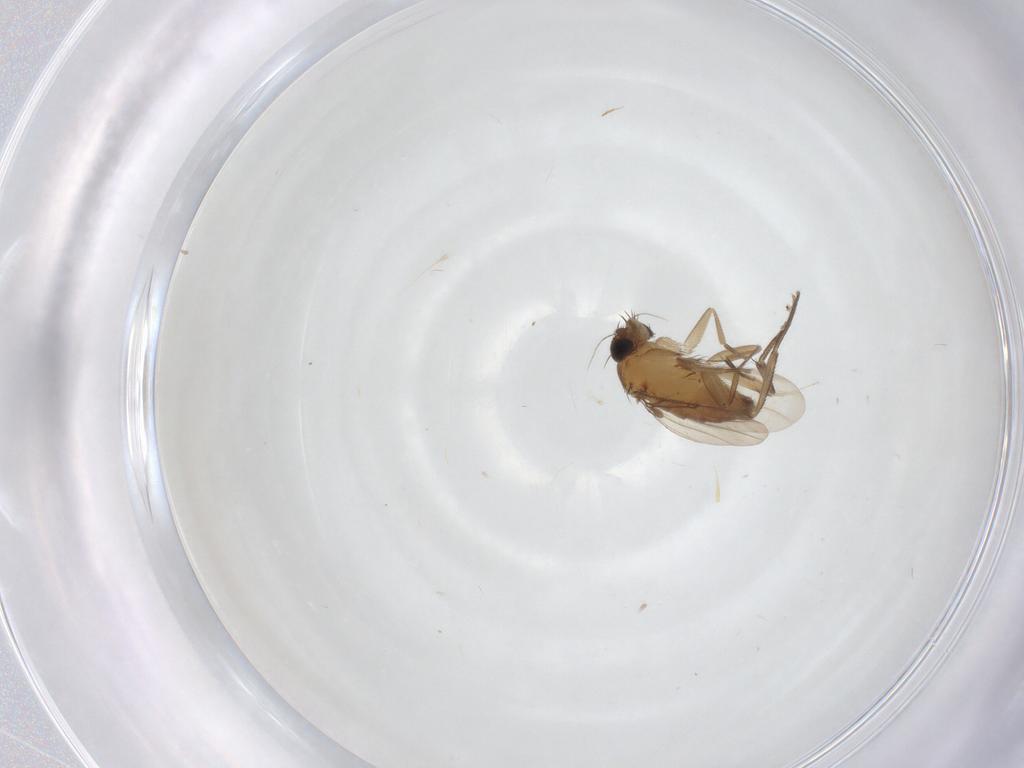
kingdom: Animalia
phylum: Arthropoda
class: Insecta
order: Diptera
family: Phoridae
